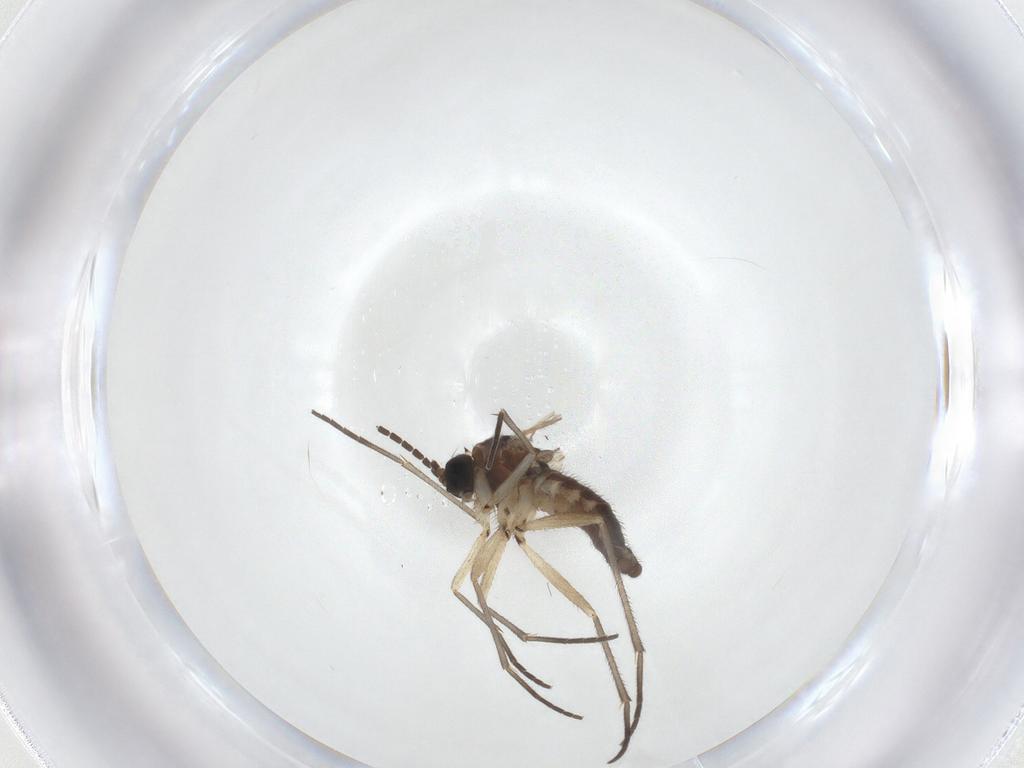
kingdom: Animalia
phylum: Arthropoda
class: Insecta
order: Diptera
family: Sciaridae
